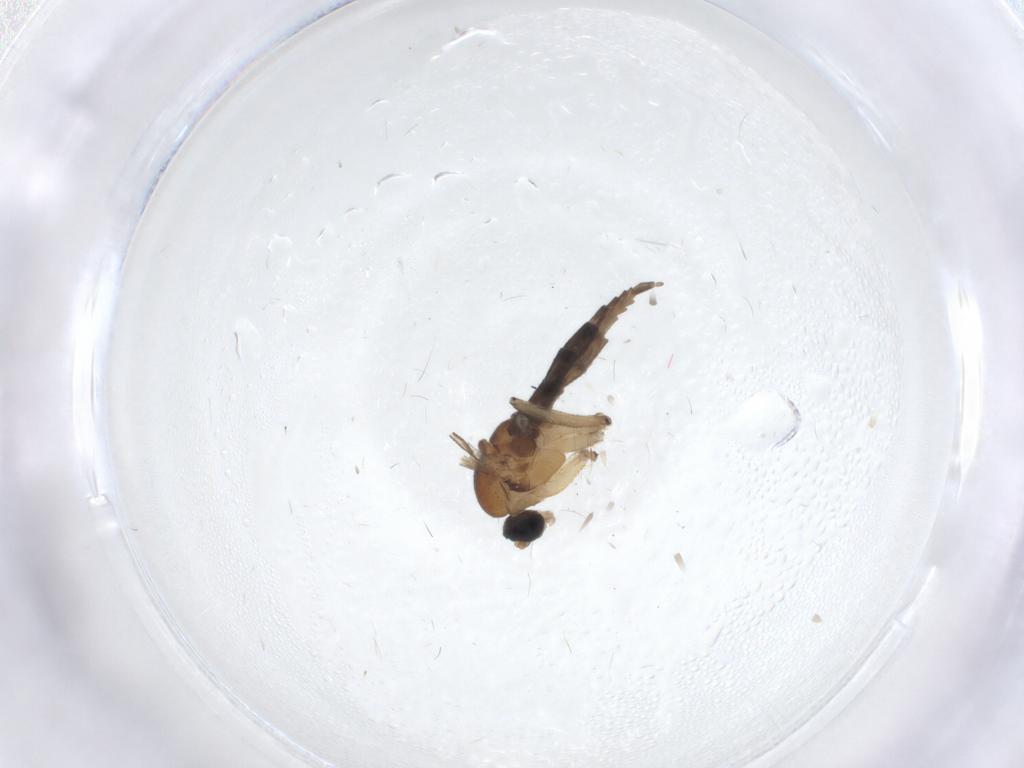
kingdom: Animalia
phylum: Arthropoda
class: Insecta
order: Diptera
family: Sciaridae
